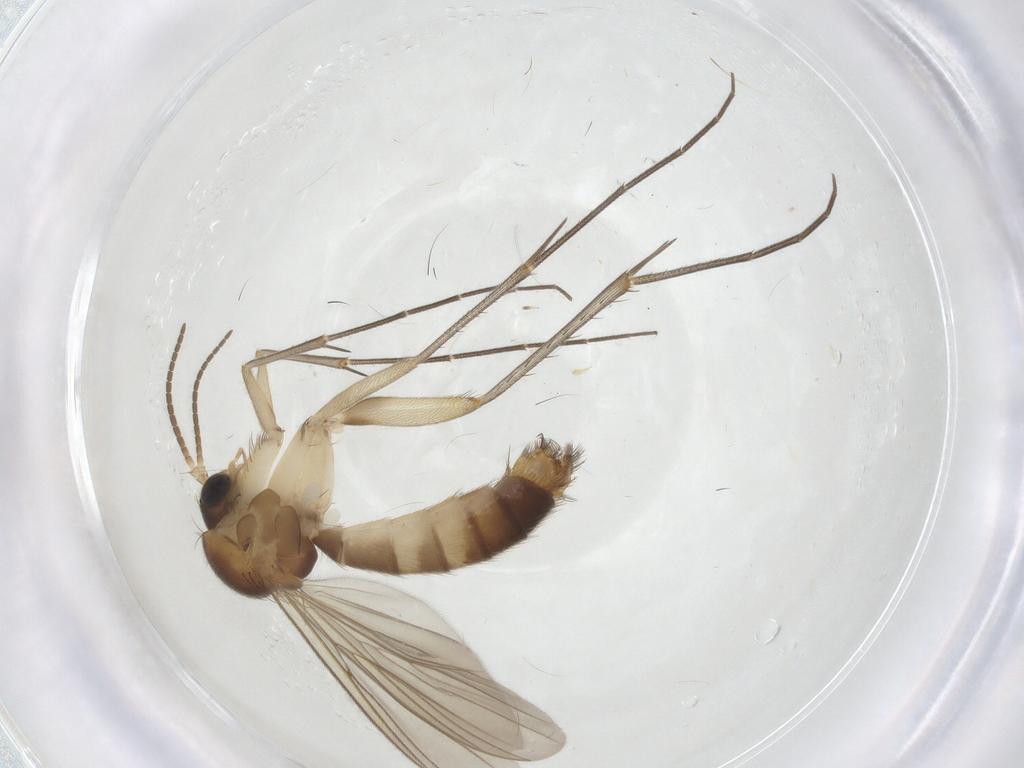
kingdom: Animalia
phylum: Arthropoda
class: Insecta
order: Diptera
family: Mycetophilidae
